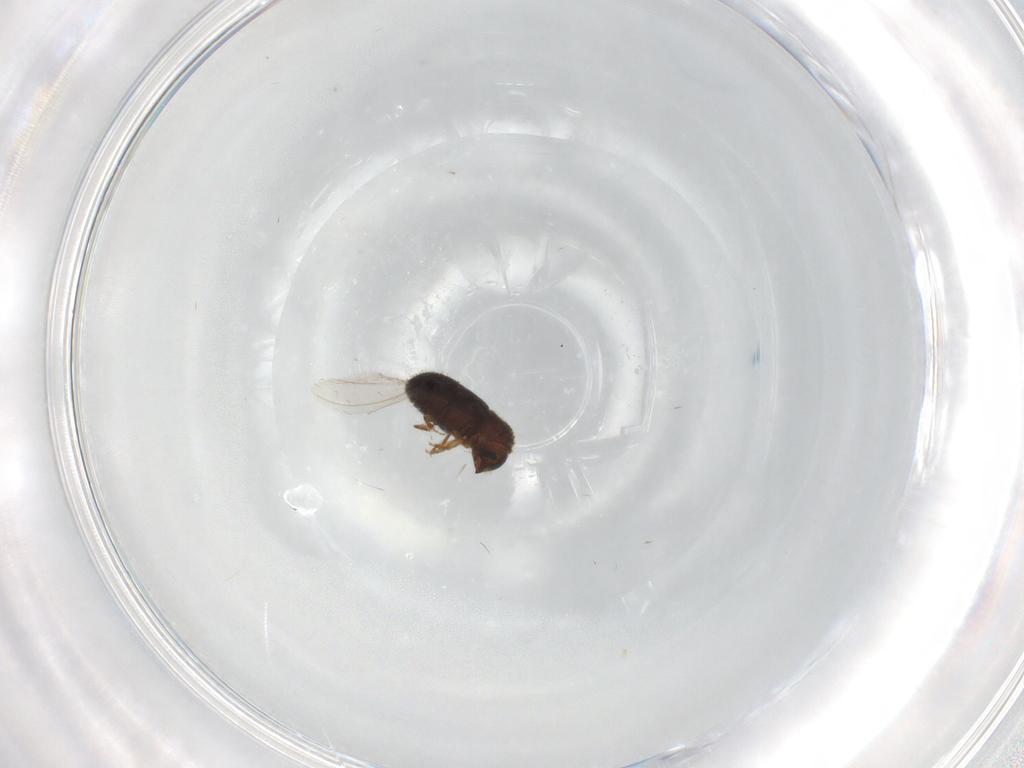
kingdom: Animalia
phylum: Arthropoda
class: Insecta
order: Coleoptera
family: Curculionidae
